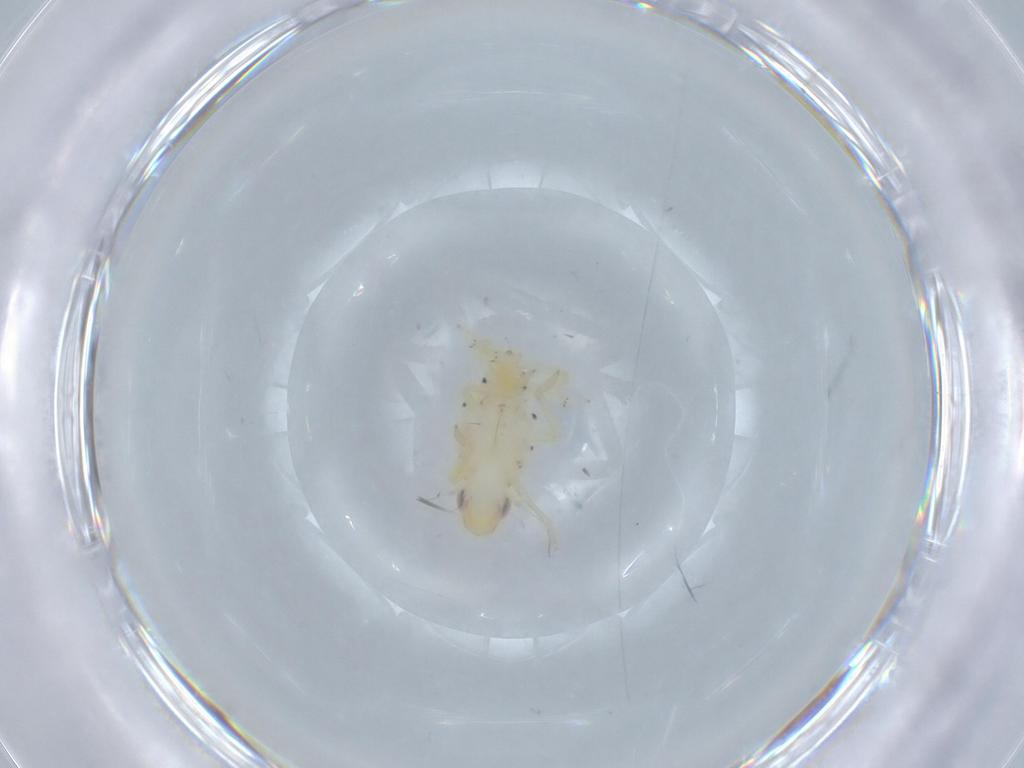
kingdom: Animalia
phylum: Arthropoda
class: Insecta
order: Hemiptera
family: Tropiduchidae
